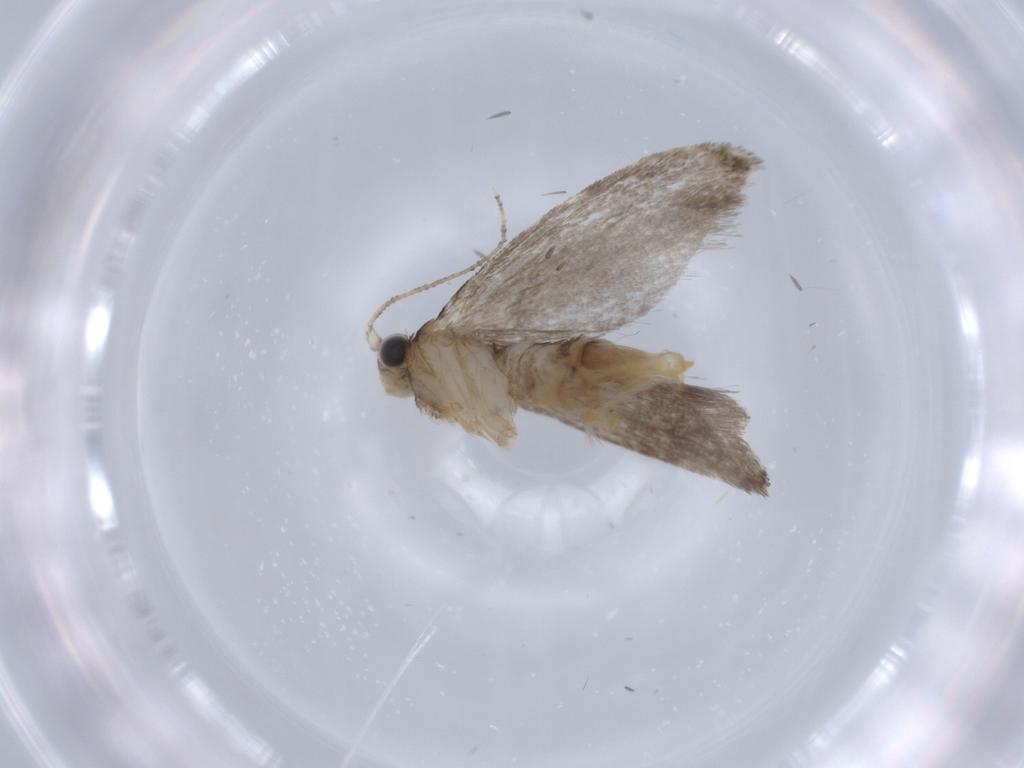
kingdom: Animalia
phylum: Arthropoda
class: Insecta
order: Lepidoptera
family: Tineidae
